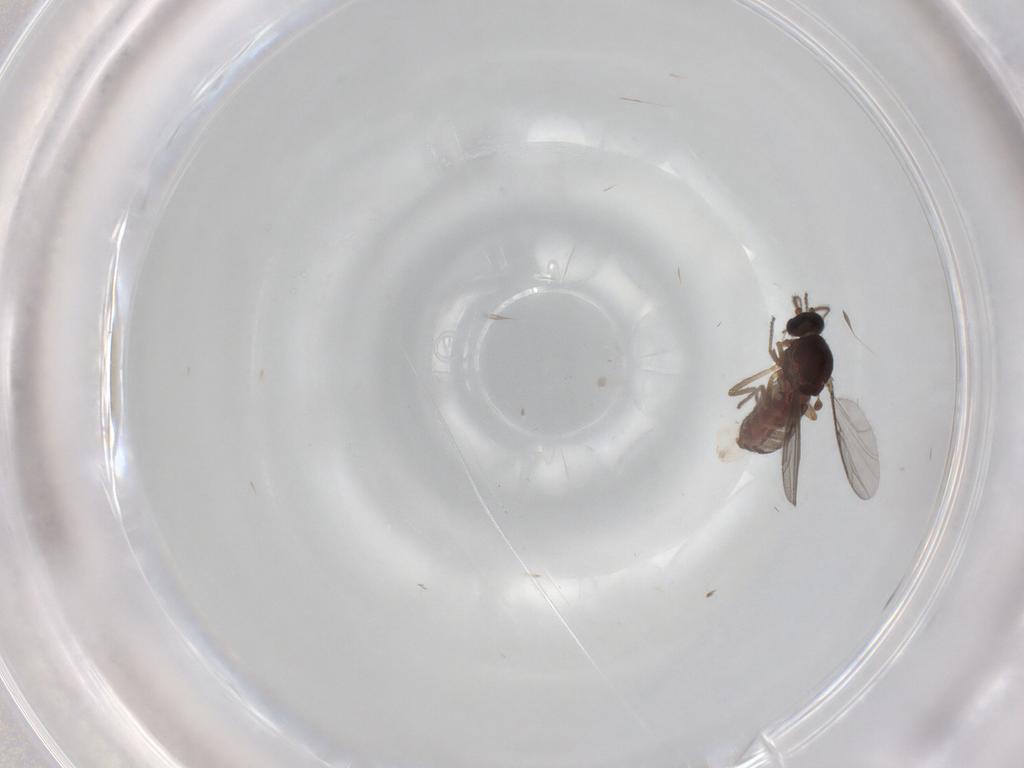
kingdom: Animalia
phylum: Arthropoda
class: Insecta
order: Diptera
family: Ceratopogonidae
